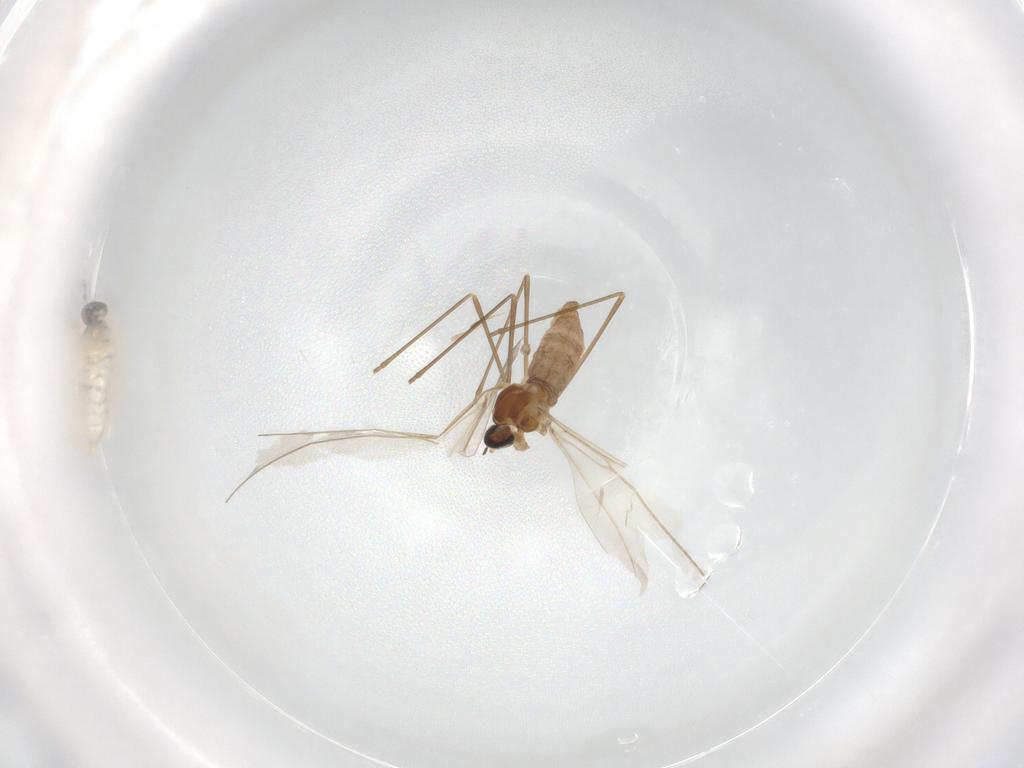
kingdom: Animalia
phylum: Arthropoda
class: Insecta
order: Diptera
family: Cecidomyiidae
